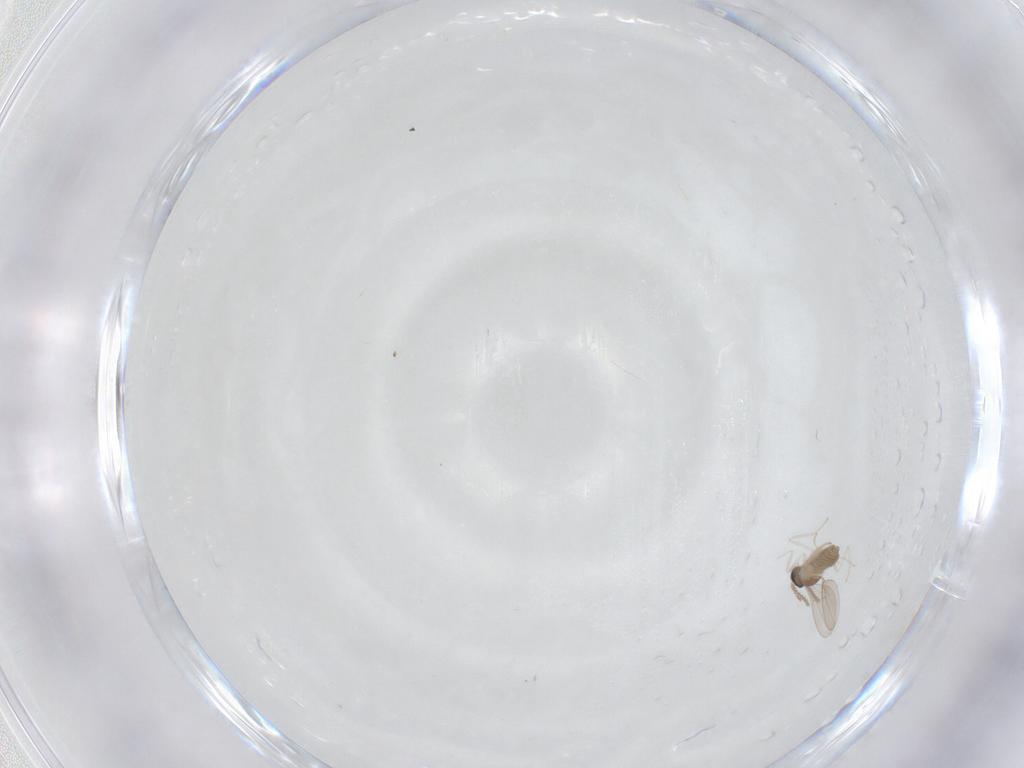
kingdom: Animalia
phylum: Arthropoda
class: Insecta
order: Diptera
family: Cecidomyiidae
